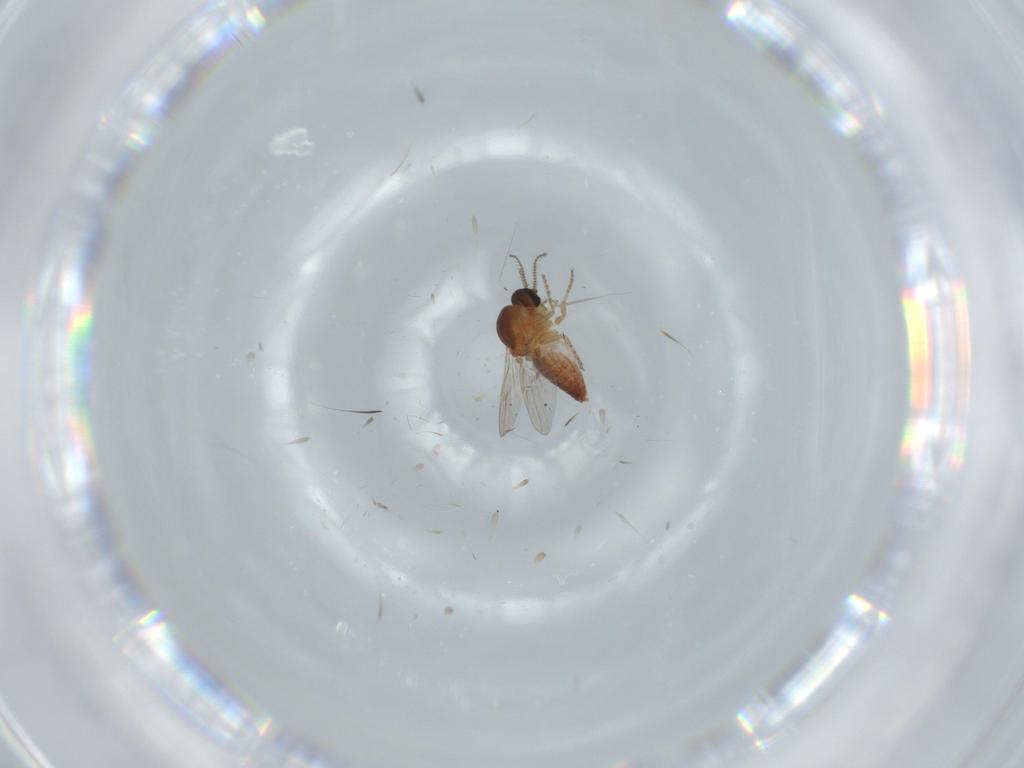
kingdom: Animalia
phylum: Arthropoda
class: Insecta
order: Diptera
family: Ceratopogonidae
